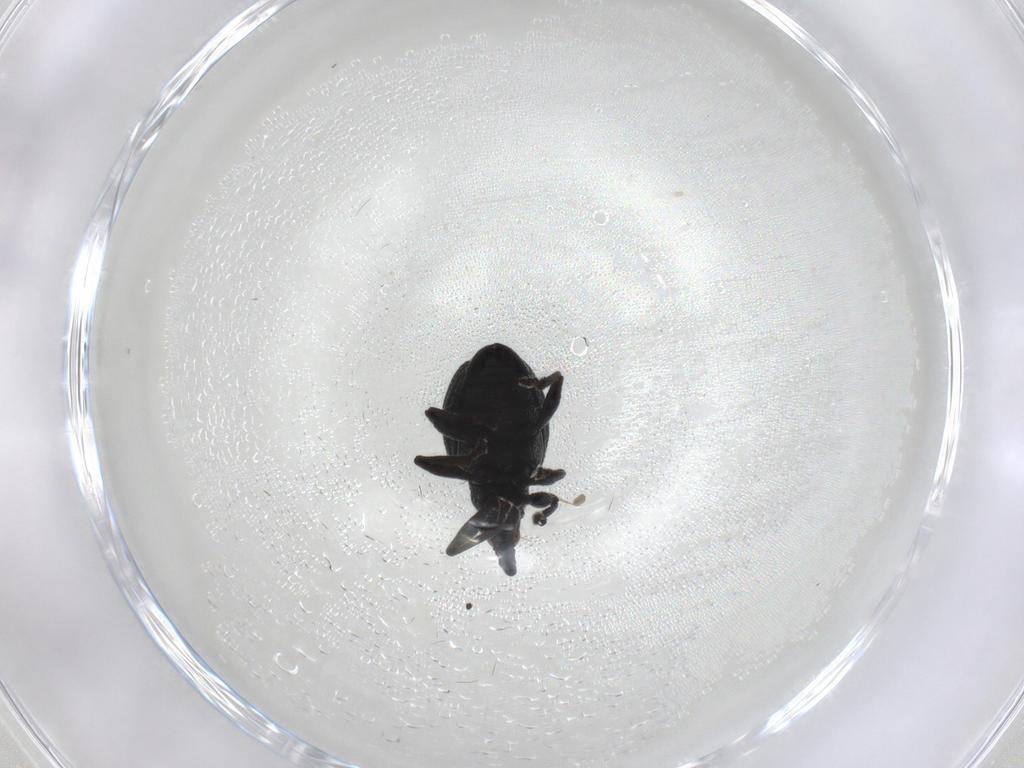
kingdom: Animalia
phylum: Arthropoda
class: Insecta
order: Coleoptera
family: Brentidae
